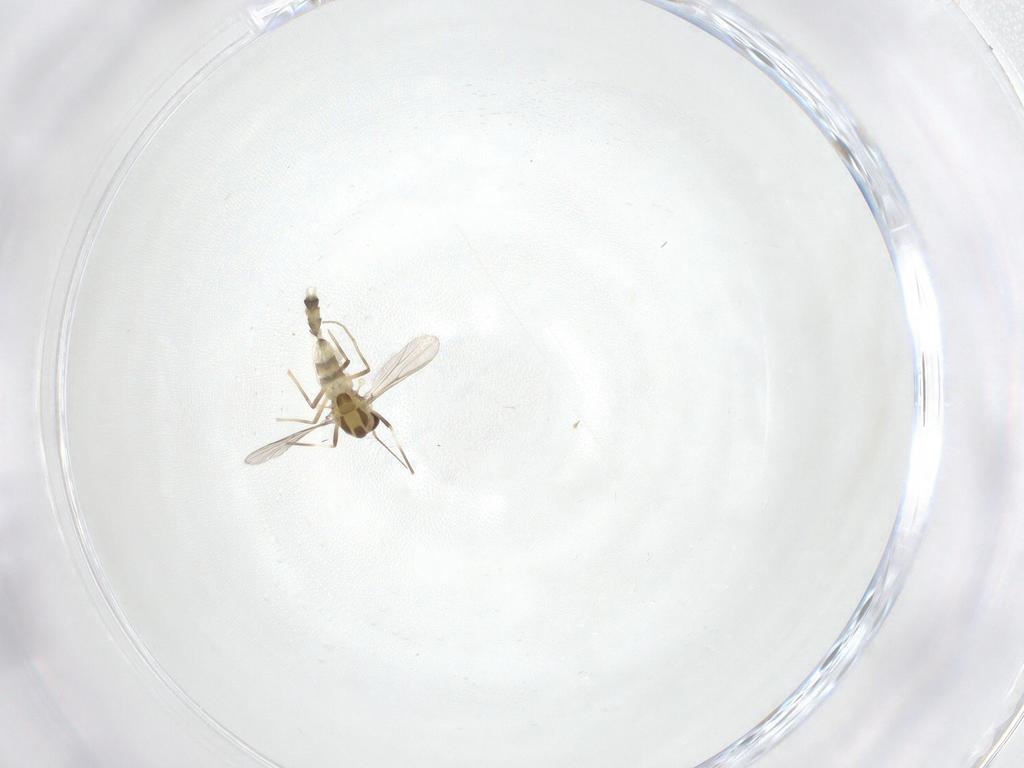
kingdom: Animalia
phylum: Arthropoda
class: Insecta
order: Diptera
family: Chironomidae
